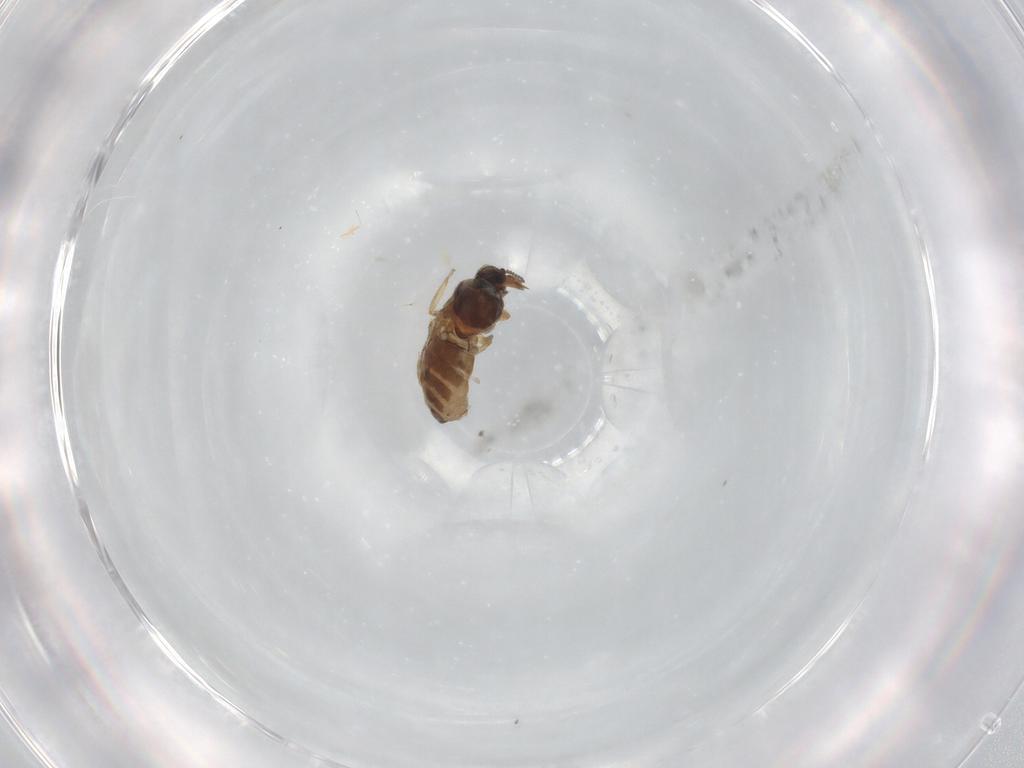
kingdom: Animalia
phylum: Arthropoda
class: Insecta
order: Diptera
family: Ceratopogonidae
